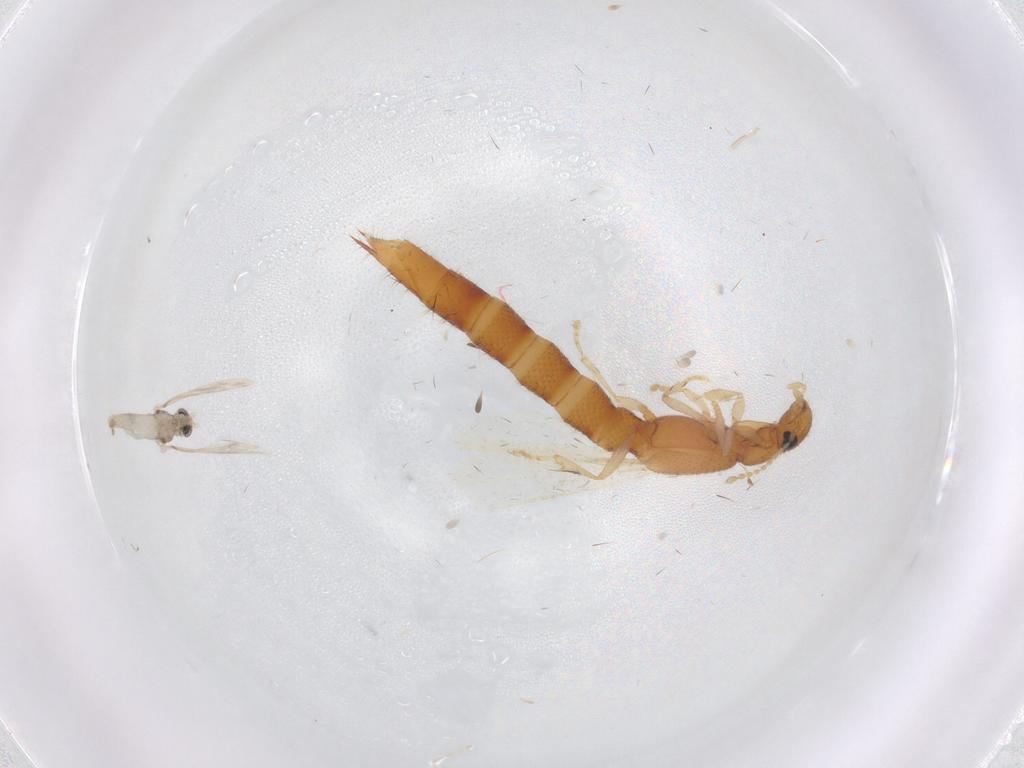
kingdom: Animalia
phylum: Arthropoda
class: Insecta
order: Coleoptera
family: Staphylinidae
